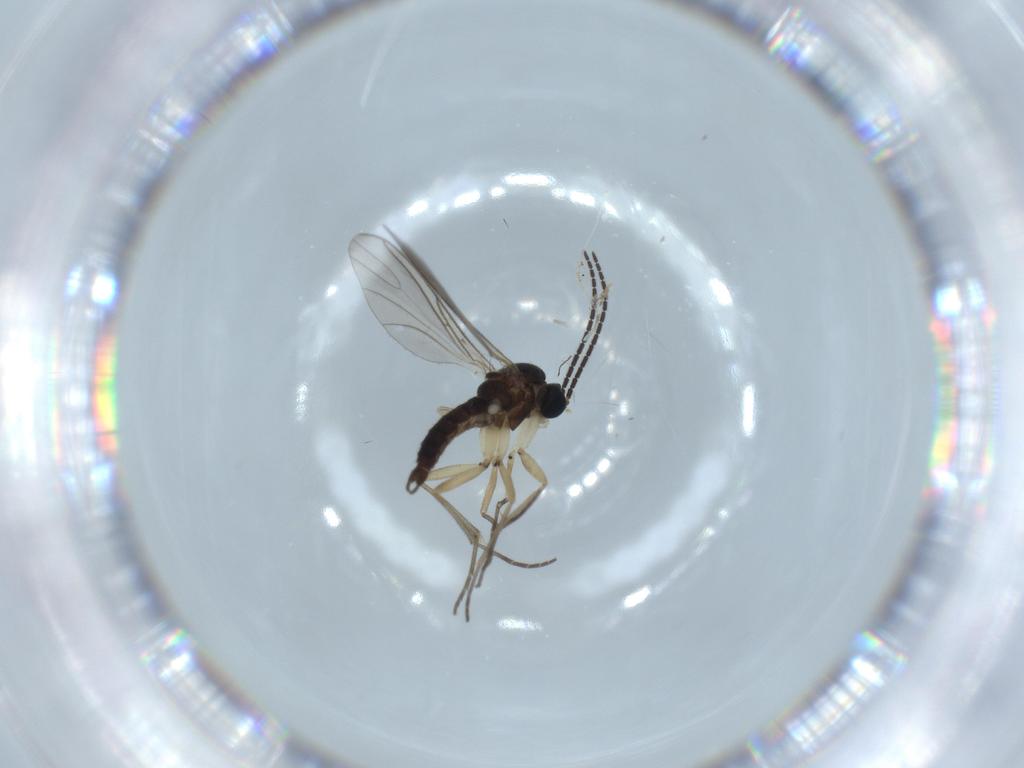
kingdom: Animalia
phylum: Arthropoda
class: Insecta
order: Diptera
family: Sciaridae
